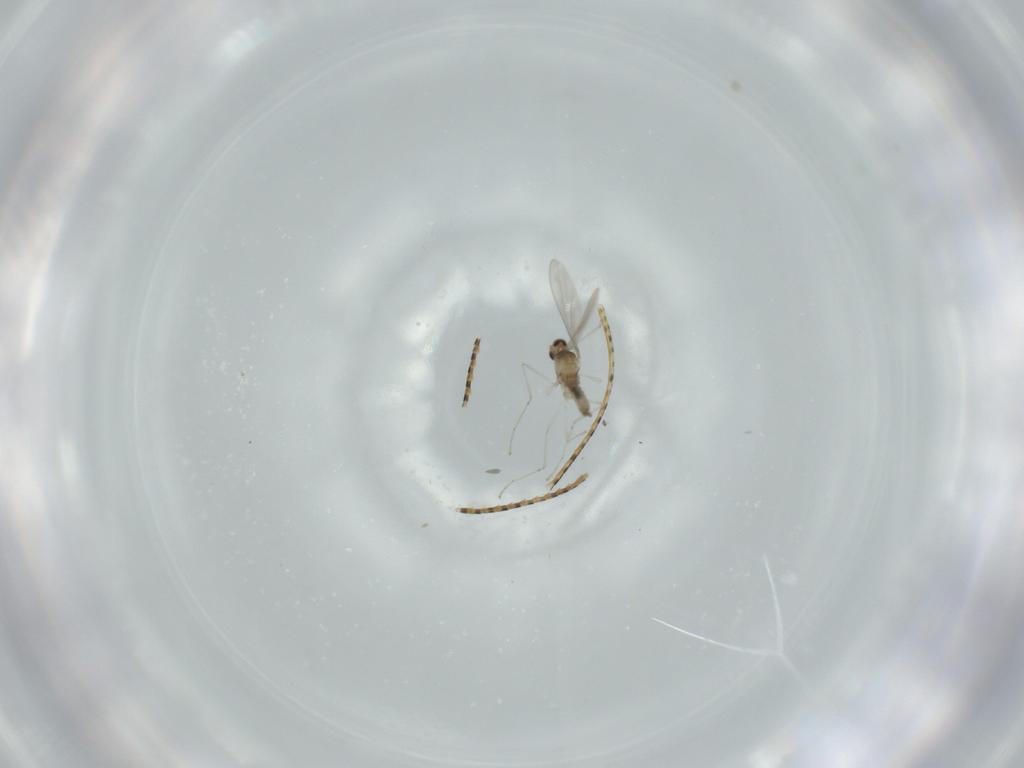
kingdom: Animalia
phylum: Arthropoda
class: Insecta
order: Diptera
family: Cecidomyiidae
